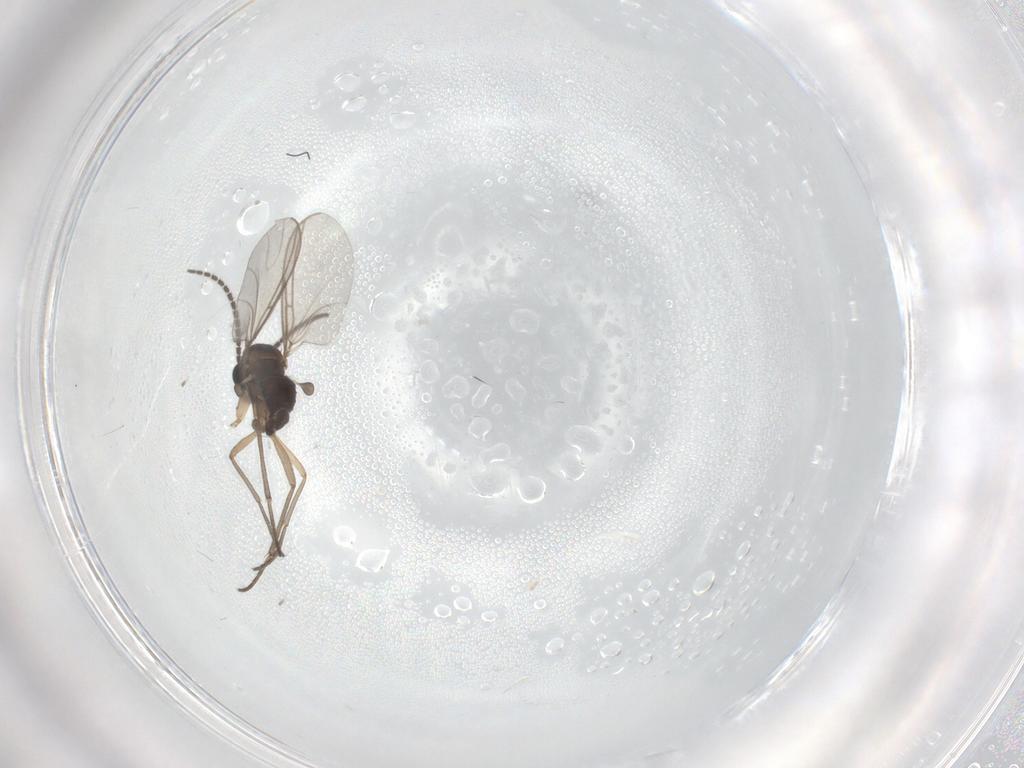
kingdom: Animalia
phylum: Arthropoda
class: Insecta
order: Diptera
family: Sciaridae
